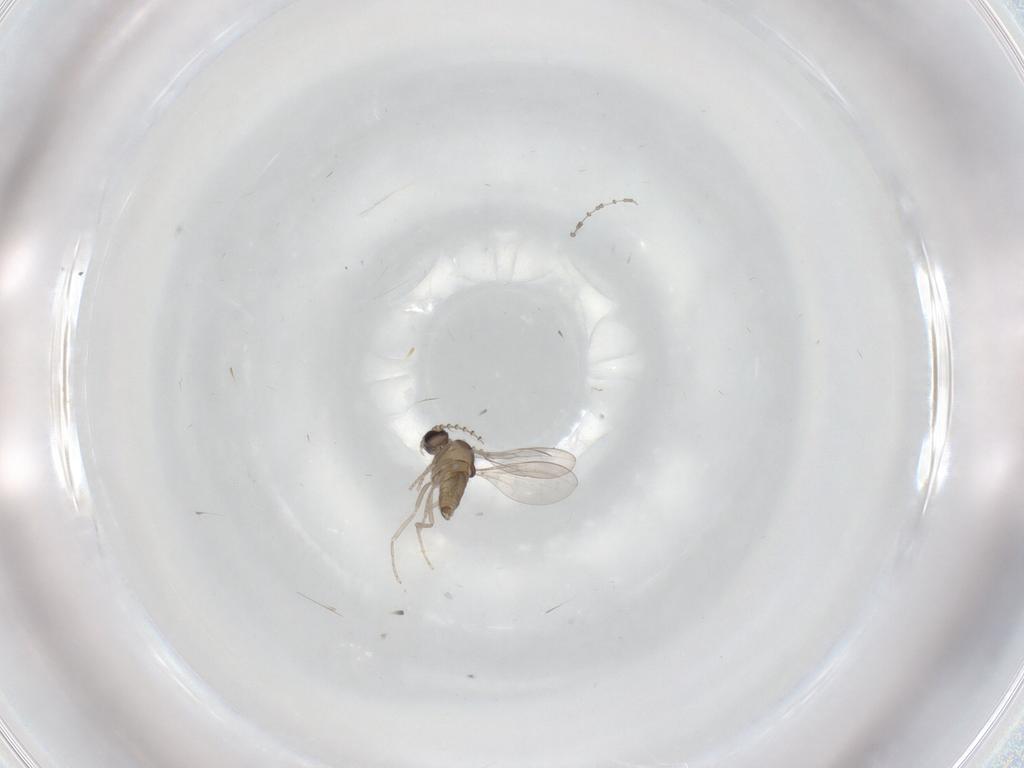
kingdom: Animalia
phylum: Arthropoda
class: Insecta
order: Diptera
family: Cecidomyiidae
